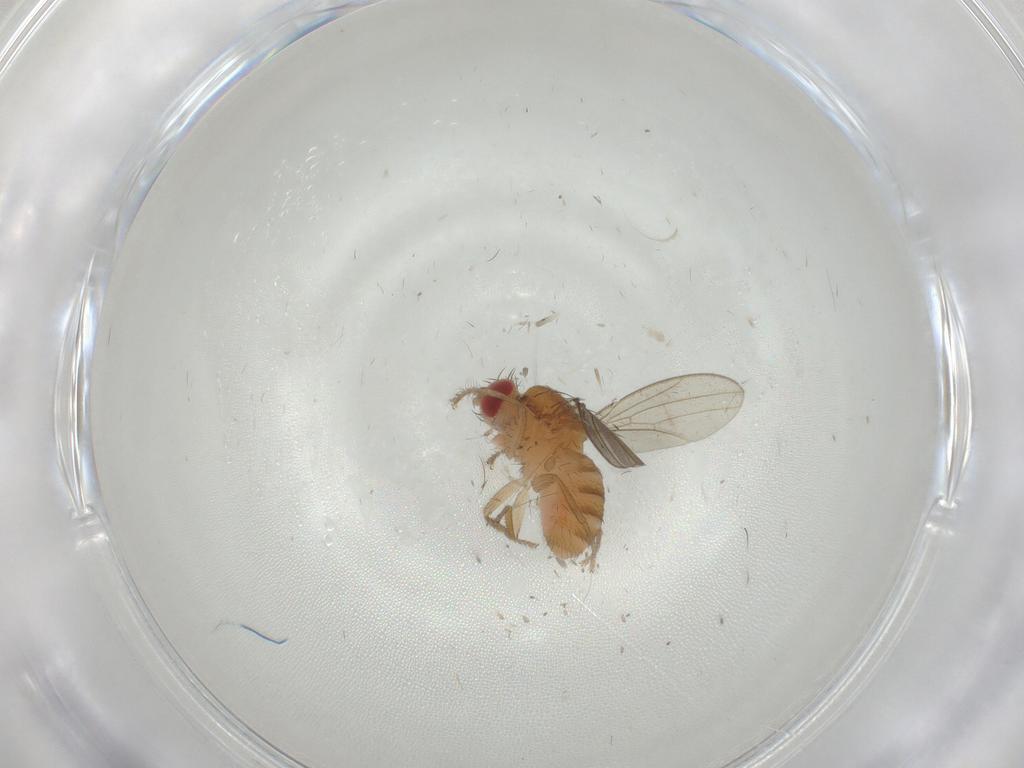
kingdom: Animalia
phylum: Arthropoda
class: Insecta
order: Diptera
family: Drosophilidae
